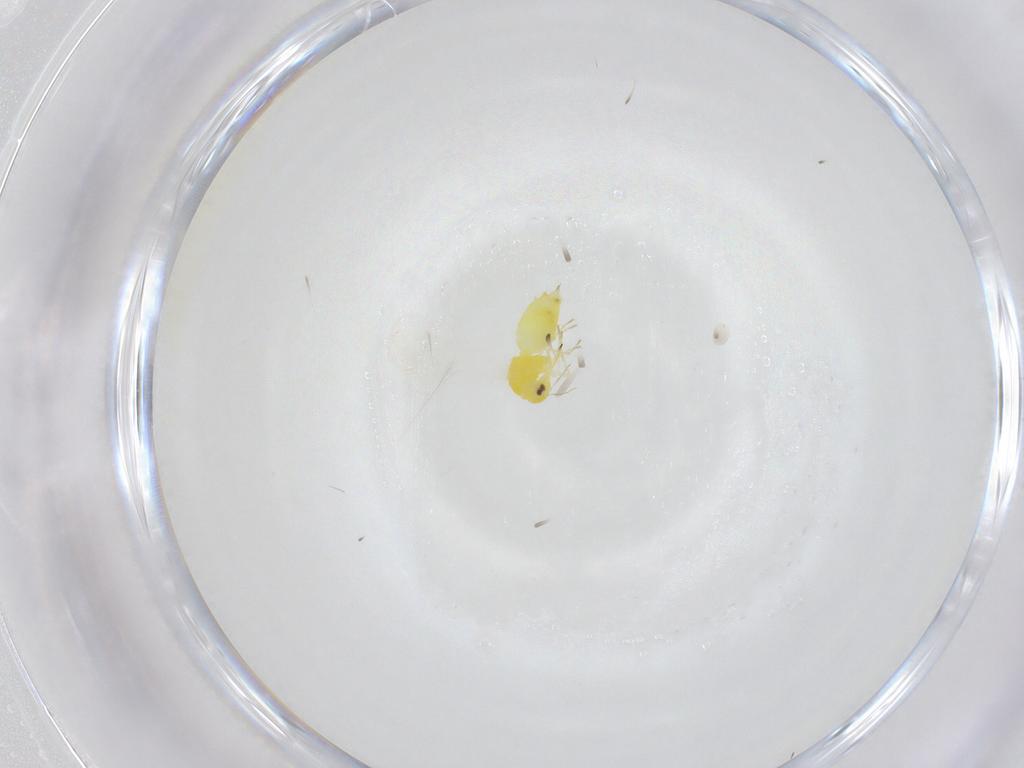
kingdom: Animalia
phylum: Arthropoda
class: Insecta
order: Hemiptera
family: Aleyrodidae
